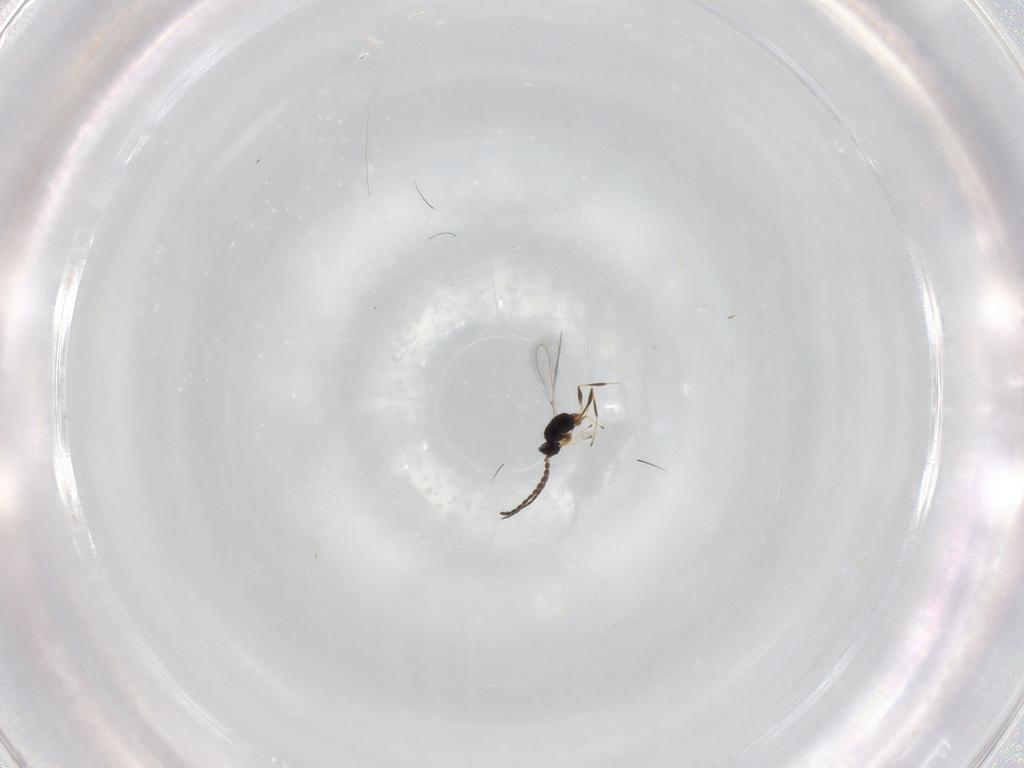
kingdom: Animalia
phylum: Arthropoda
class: Insecta
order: Hymenoptera
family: Mymaridae
